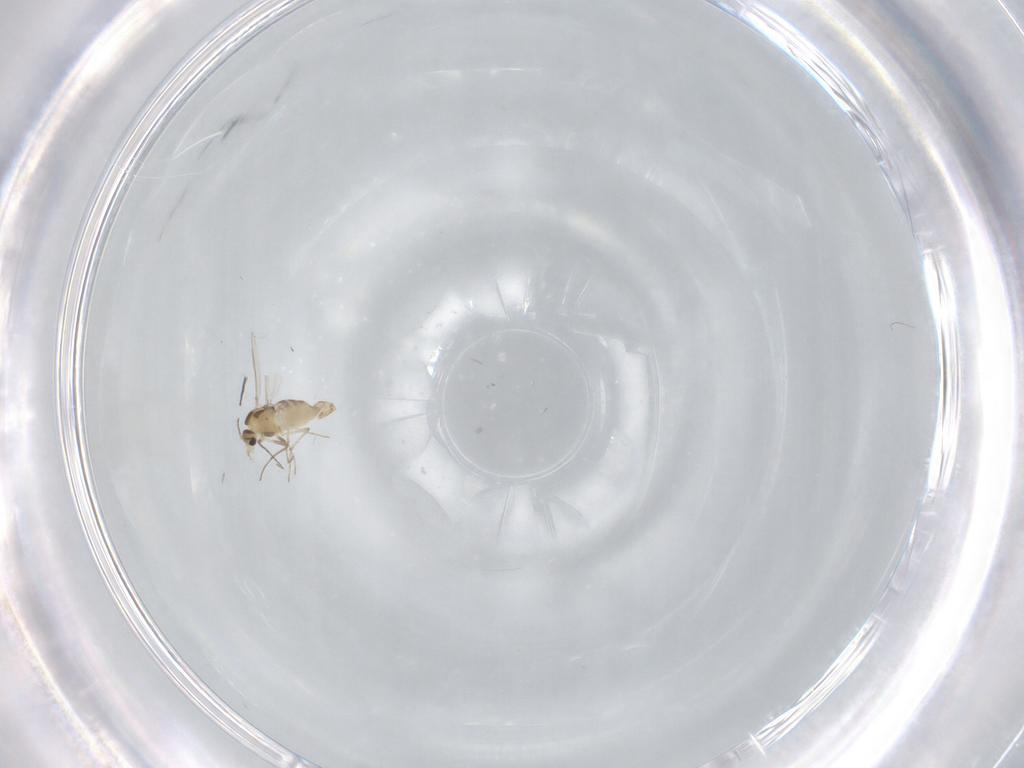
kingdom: Animalia
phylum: Arthropoda
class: Insecta
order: Diptera
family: Chironomidae
